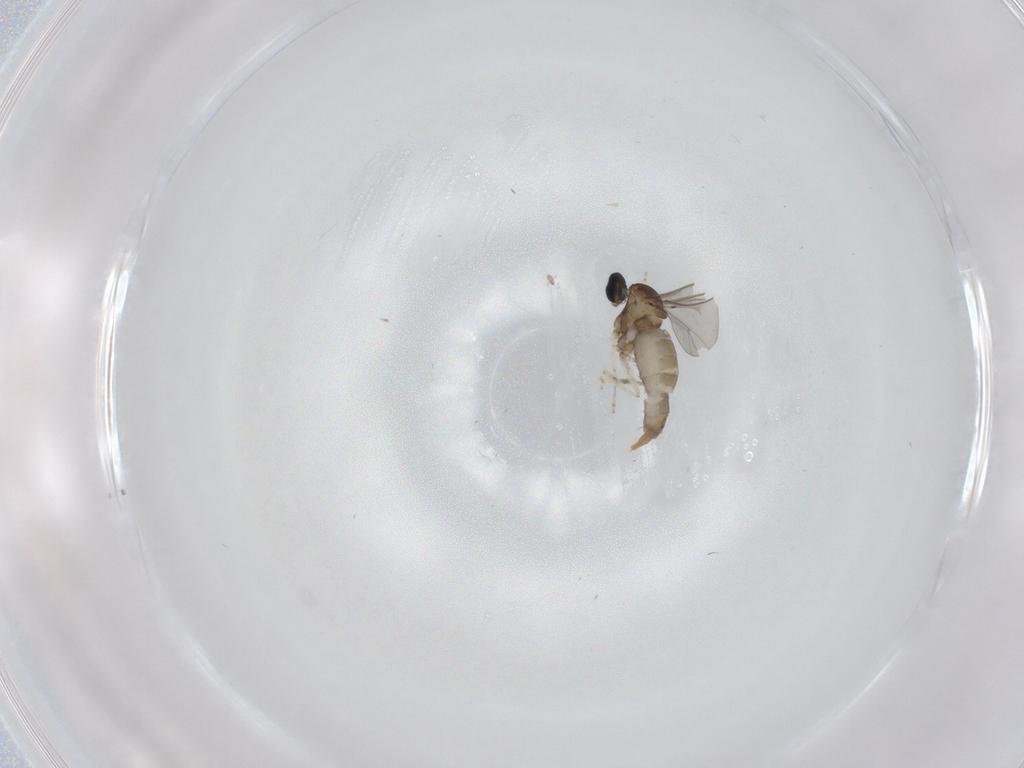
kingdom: Animalia
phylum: Arthropoda
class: Insecta
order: Diptera
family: Cecidomyiidae
